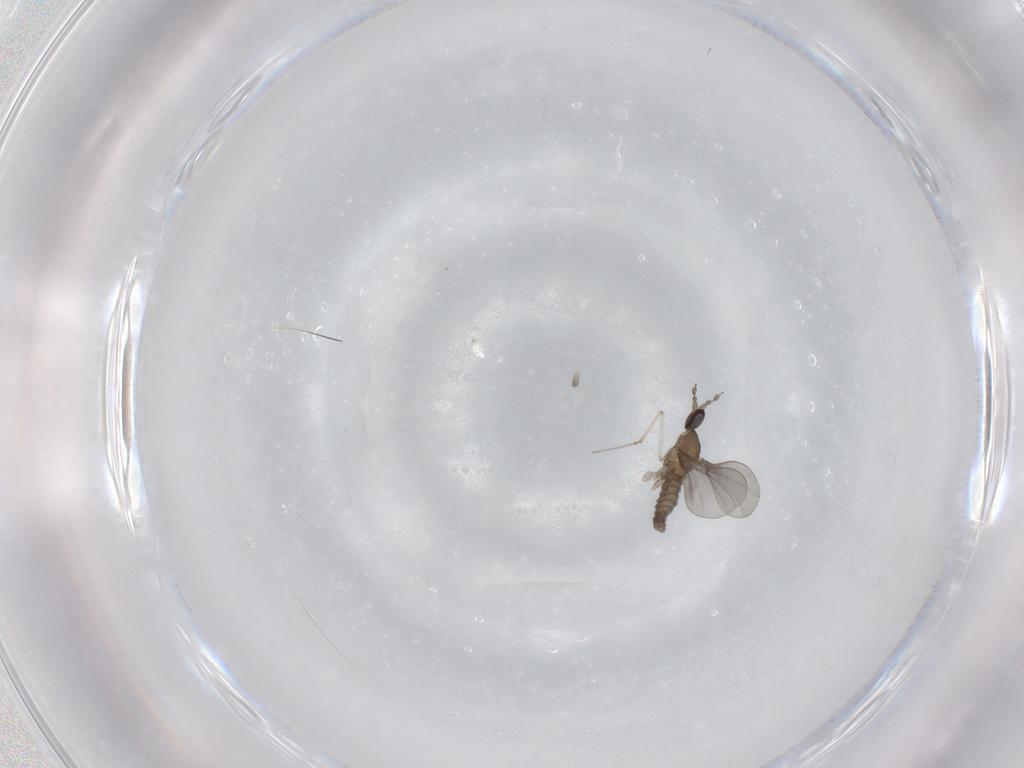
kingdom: Animalia
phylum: Arthropoda
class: Insecta
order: Diptera
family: Cecidomyiidae
